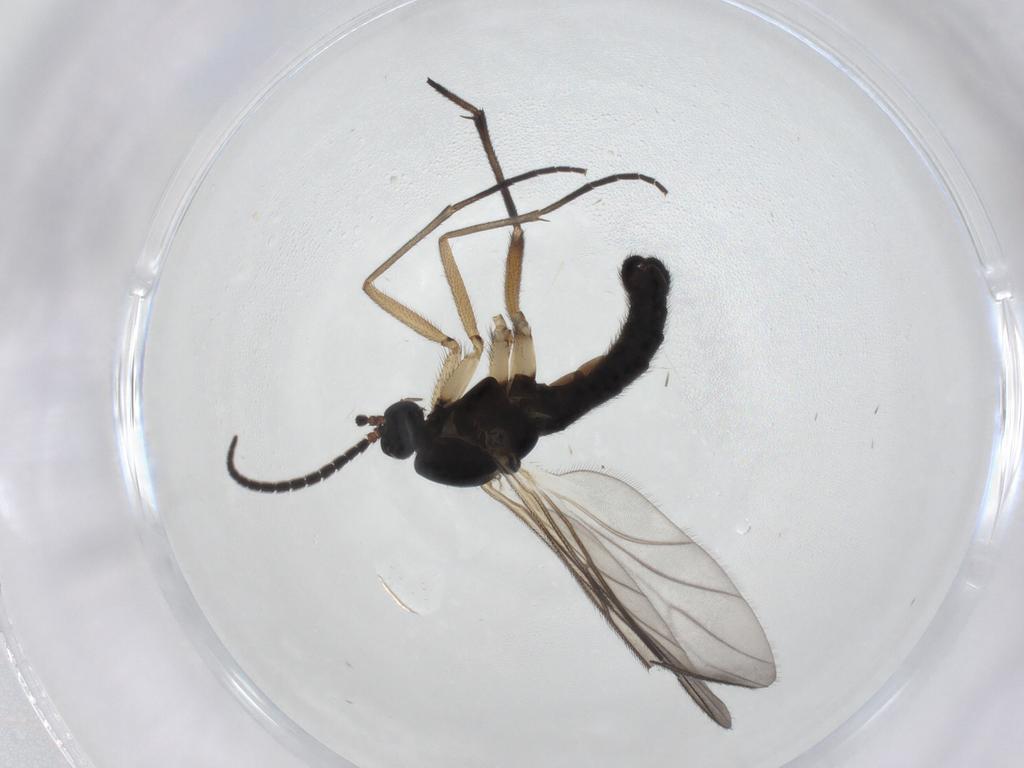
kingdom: Animalia
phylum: Arthropoda
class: Insecta
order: Diptera
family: Sciaridae
